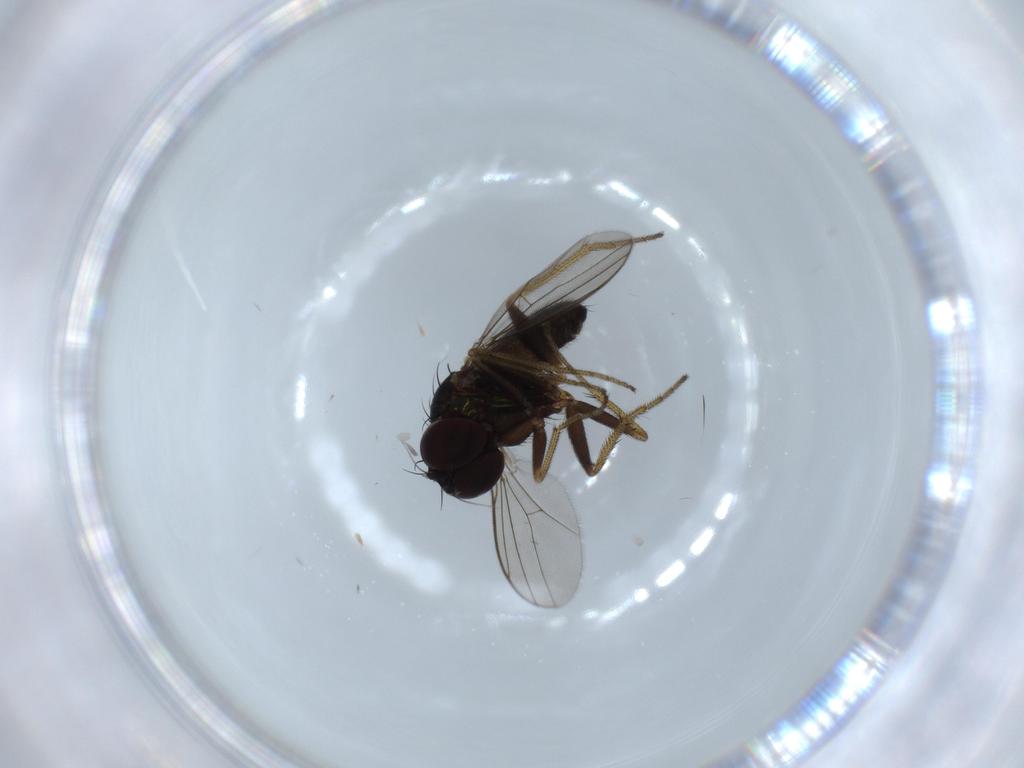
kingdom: Animalia
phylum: Arthropoda
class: Insecta
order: Diptera
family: Dolichopodidae
